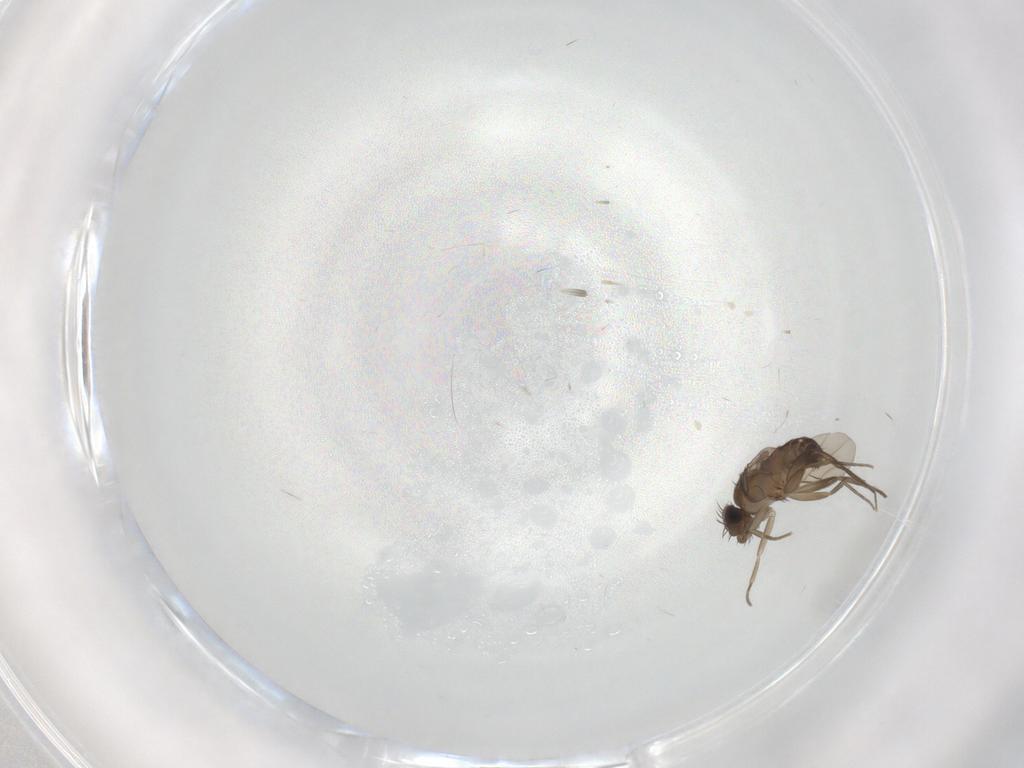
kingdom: Animalia
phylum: Arthropoda
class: Insecta
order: Diptera
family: Phoridae
